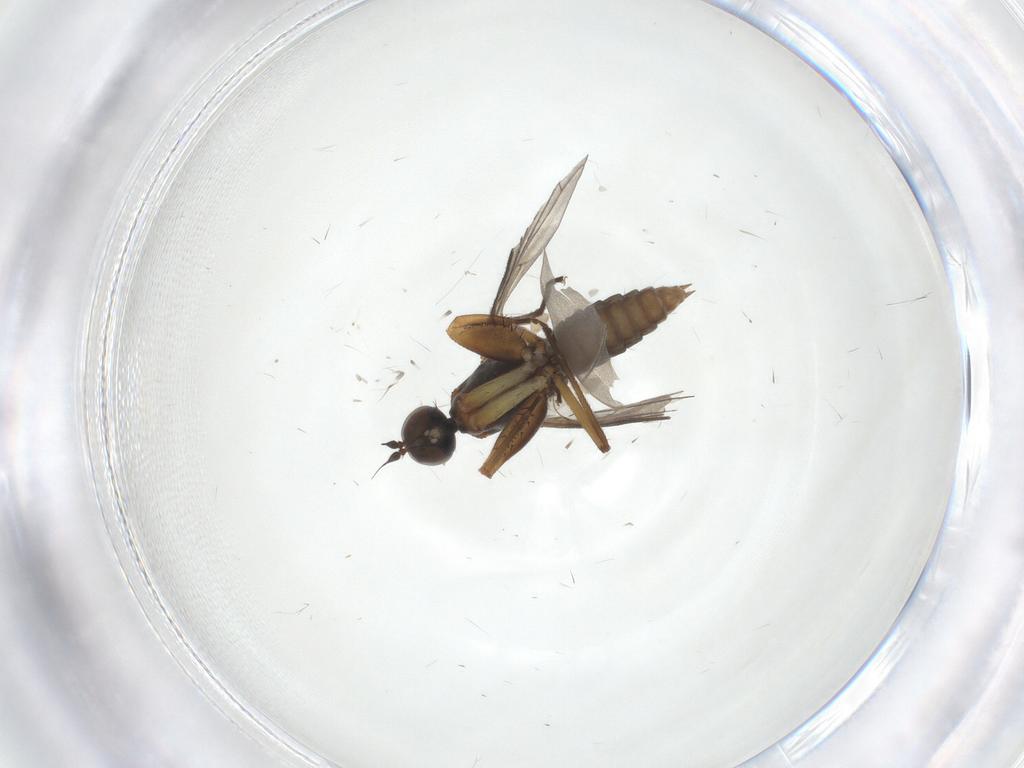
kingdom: Animalia
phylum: Arthropoda
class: Insecta
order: Diptera
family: Empididae
